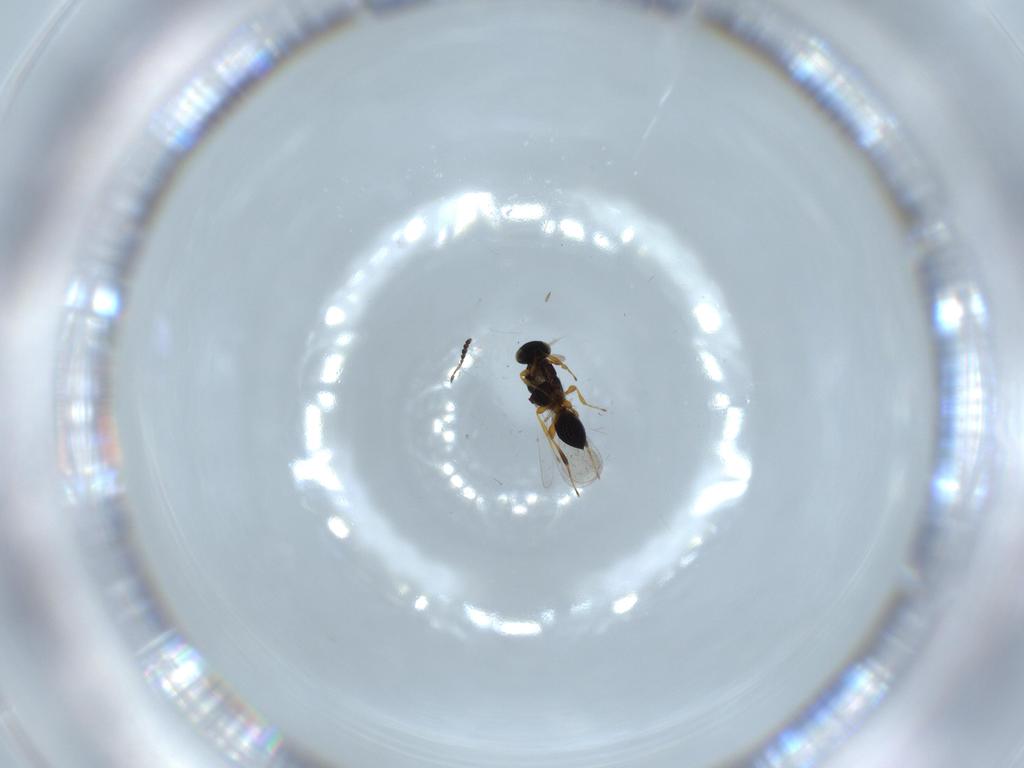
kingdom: Animalia
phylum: Arthropoda
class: Insecta
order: Hymenoptera
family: Platygastridae
